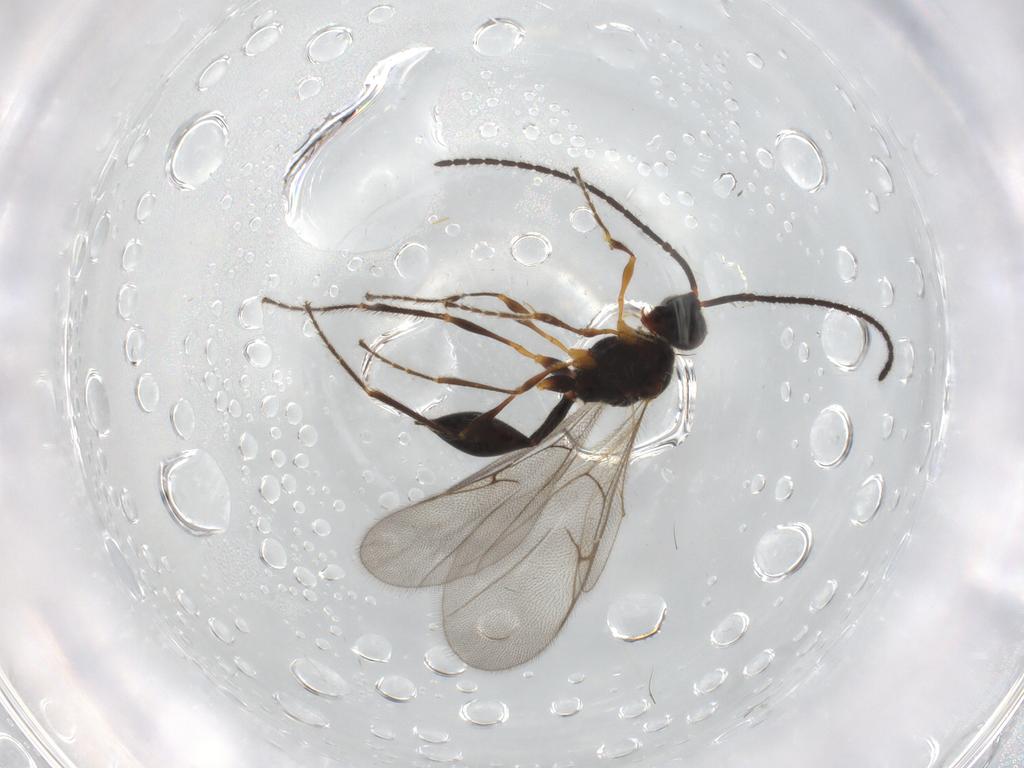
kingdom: Animalia
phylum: Arthropoda
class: Insecta
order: Hymenoptera
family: Diapriidae
